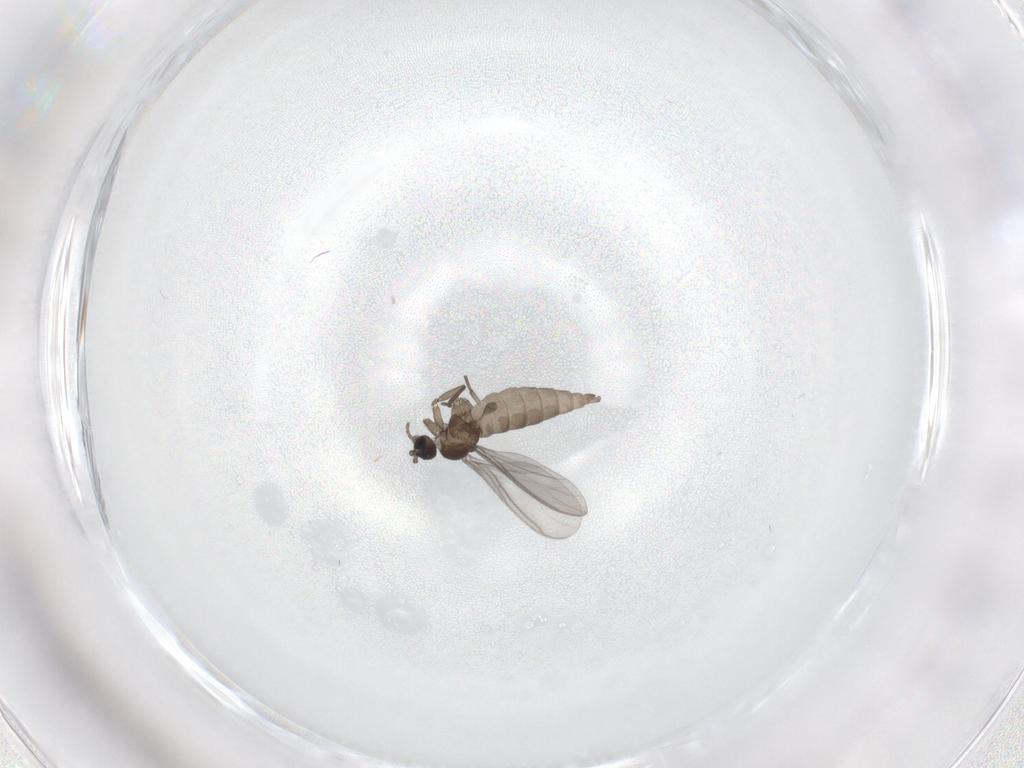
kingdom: Animalia
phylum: Arthropoda
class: Insecta
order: Diptera
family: Sciaridae
